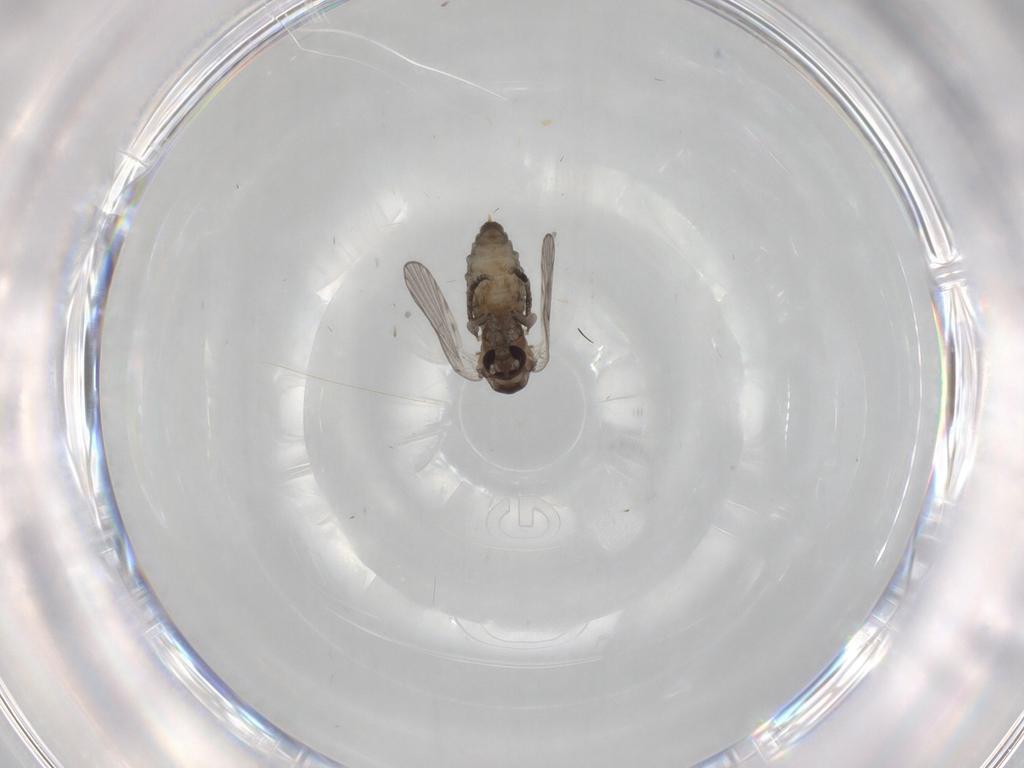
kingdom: Animalia
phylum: Arthropoda
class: Insecta
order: Diptera
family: Psychodidae
